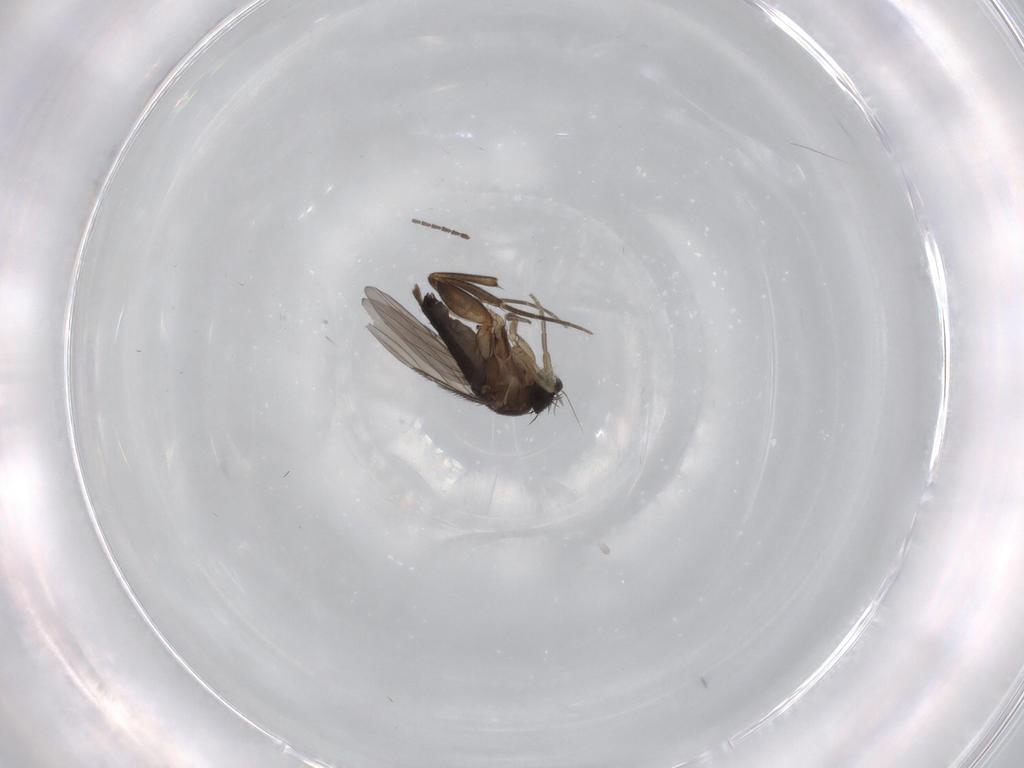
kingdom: Animalia
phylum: Arthropoda
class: Insecta
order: Diptera
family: Phoridae
